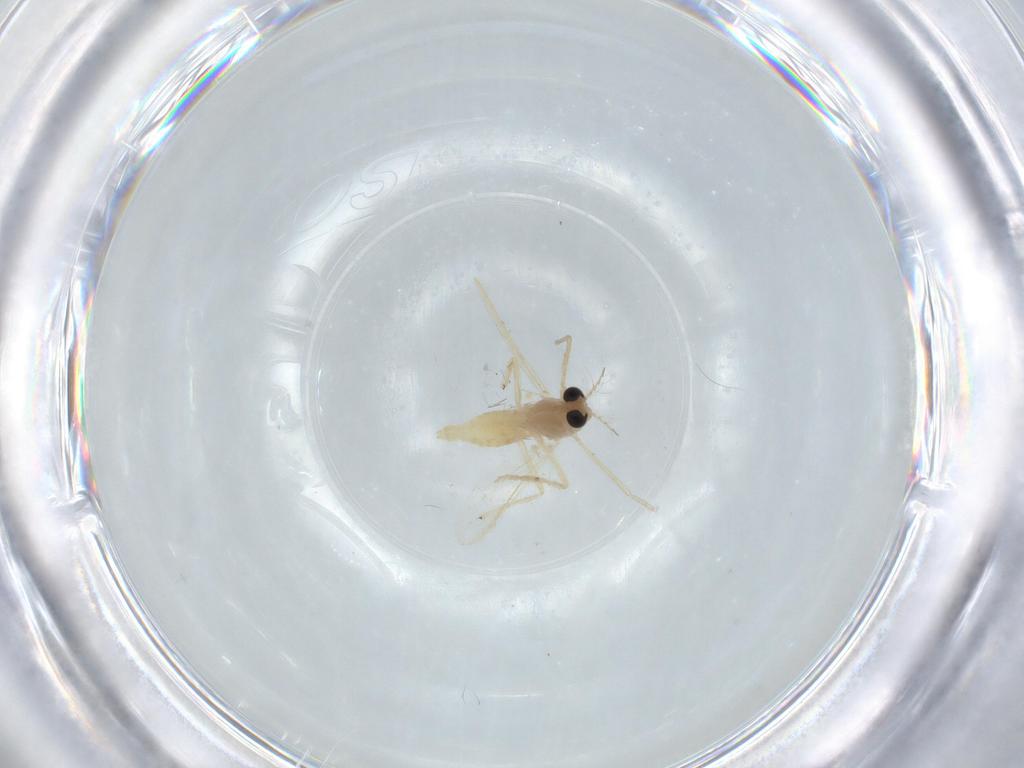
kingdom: Animalia
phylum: Arthropoda
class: Insecta
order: Diptera
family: Chironomidae
